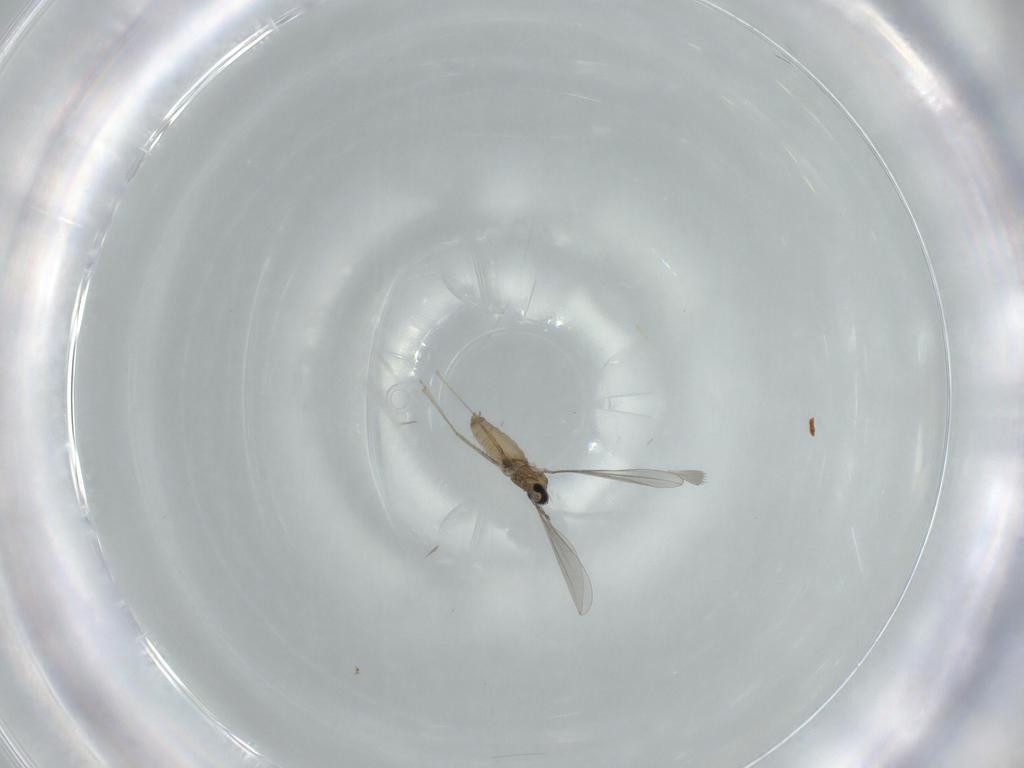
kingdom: Animalia
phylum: Arthropoda
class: Insecta
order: Diptera
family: Cecidomyiidae
